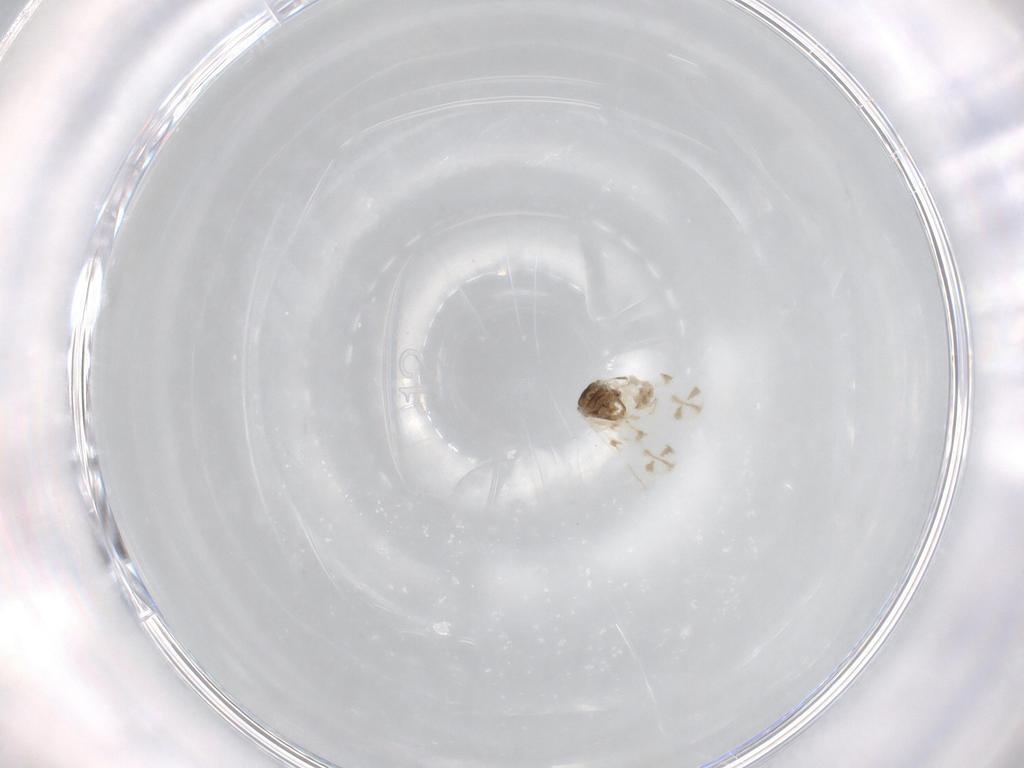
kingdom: Animalia
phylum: Arthropoda
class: Insecta
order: Hemiptera
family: Aleyrodidae
